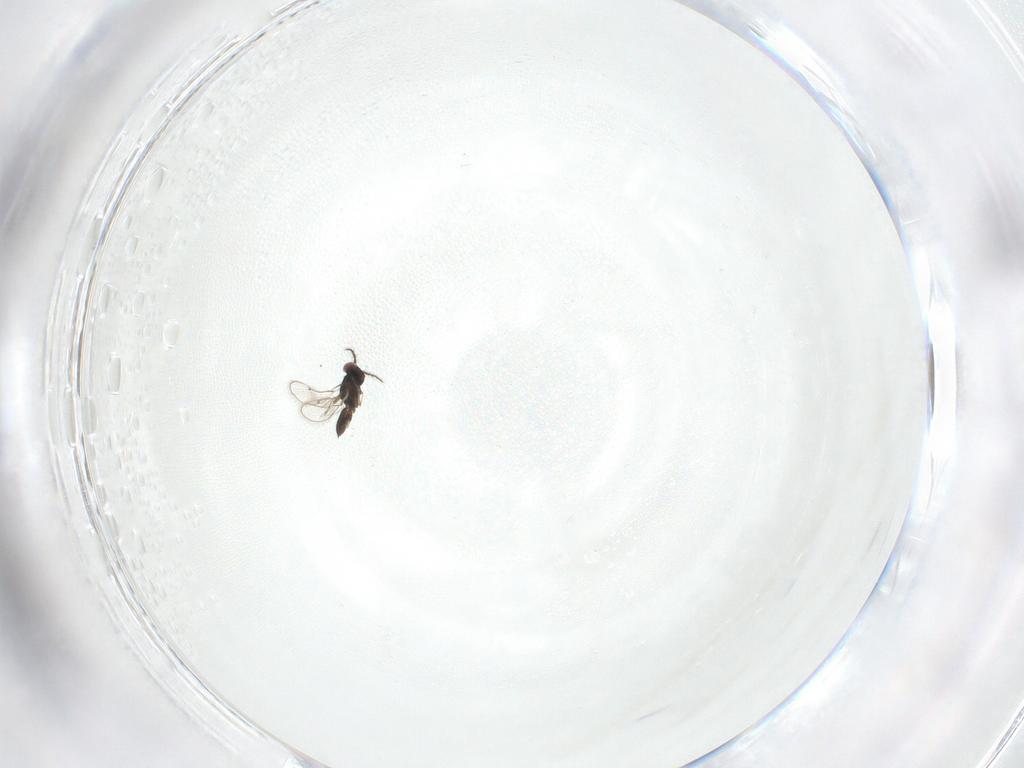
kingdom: Animalia
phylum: Arthropoda
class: Insecta
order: Hymenoptera
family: Eulophidae
